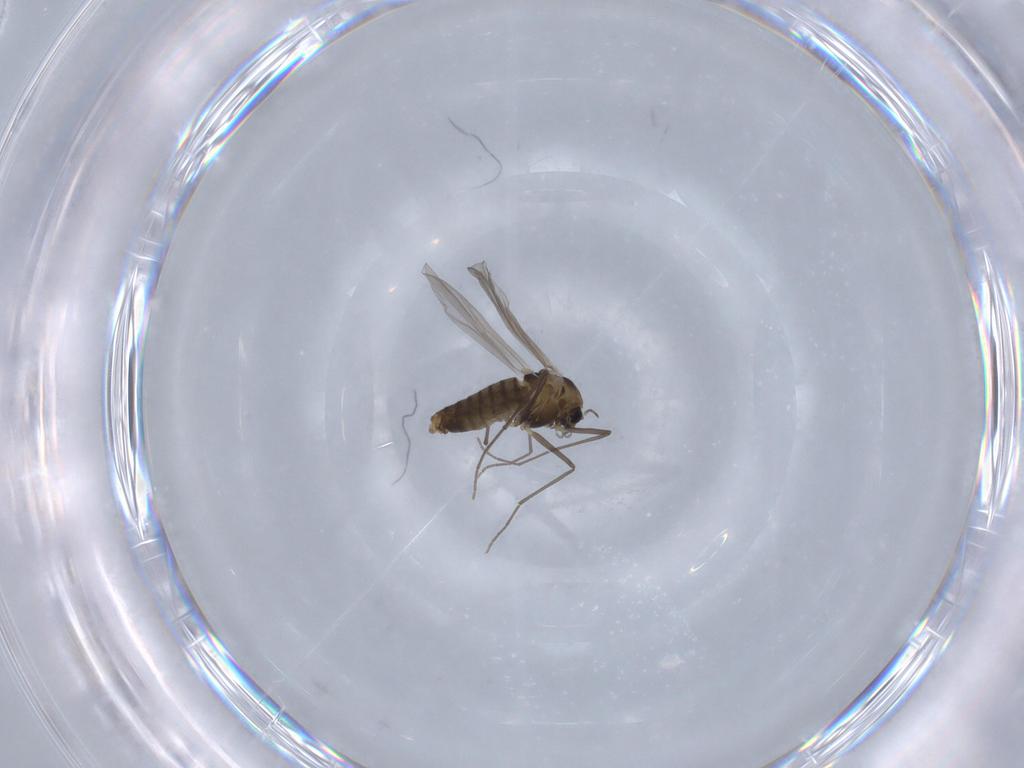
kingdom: Animalia
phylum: Arthropoda
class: Insecta
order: Diptera
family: Chironomidae
